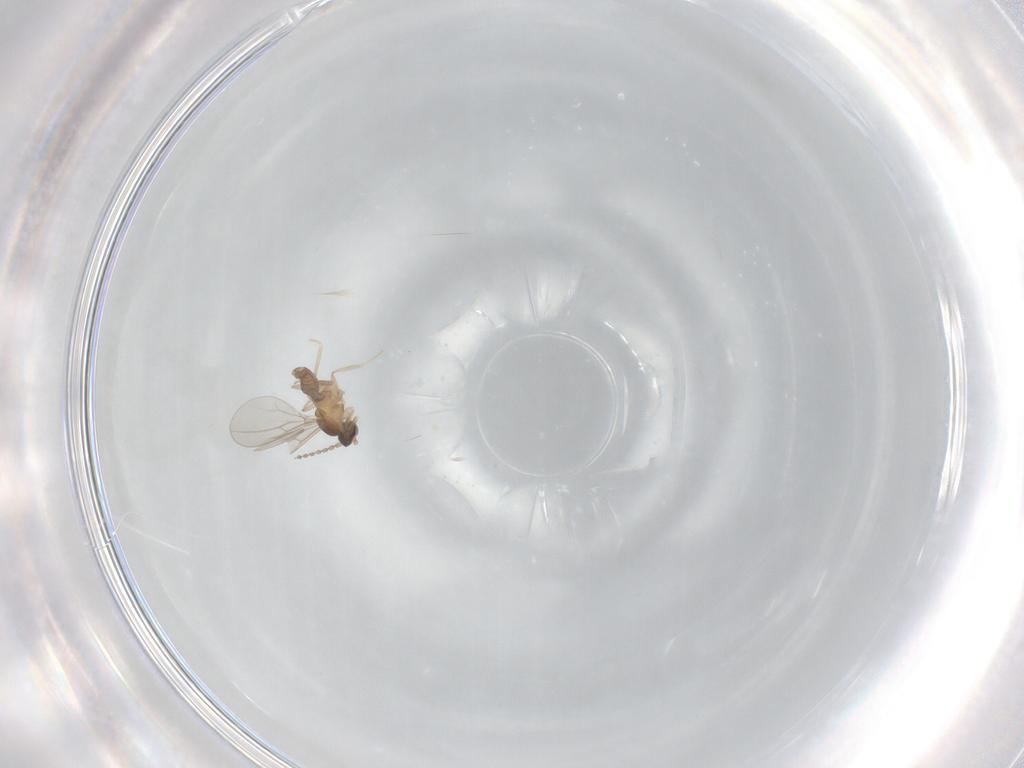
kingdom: Animalia
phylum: Arthropoda
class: Insecta
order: Diptera
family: Cecidomyiidae
